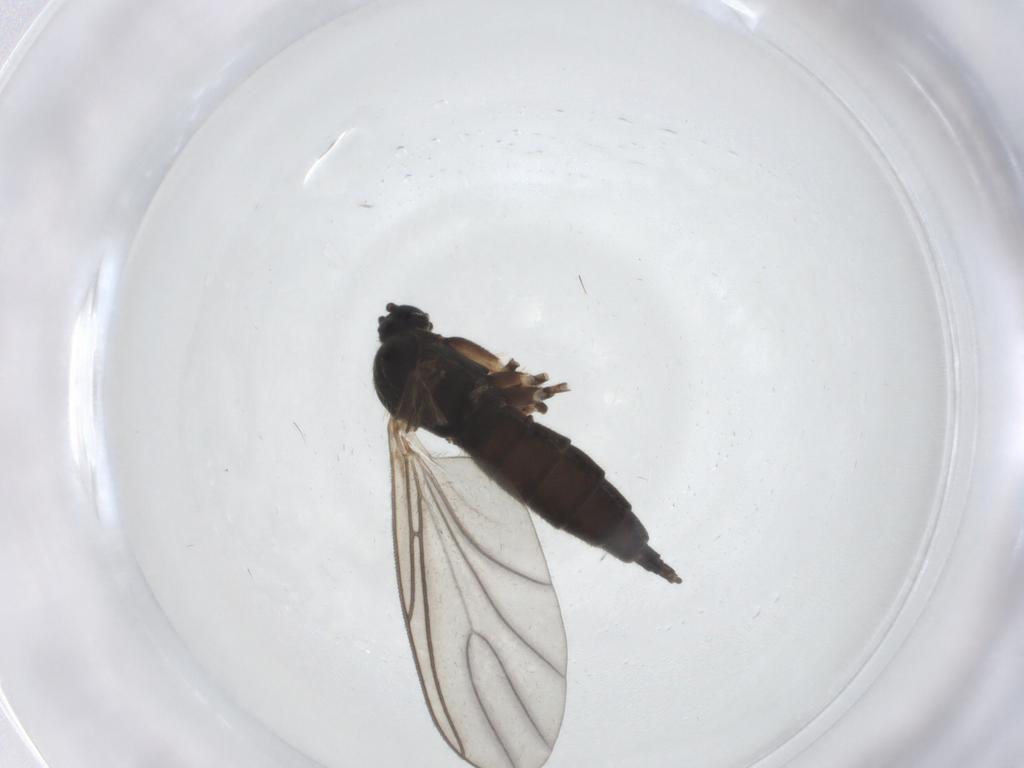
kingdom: Animalia
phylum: Arthropoda
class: Insecta
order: Diptera
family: Sciaridae
